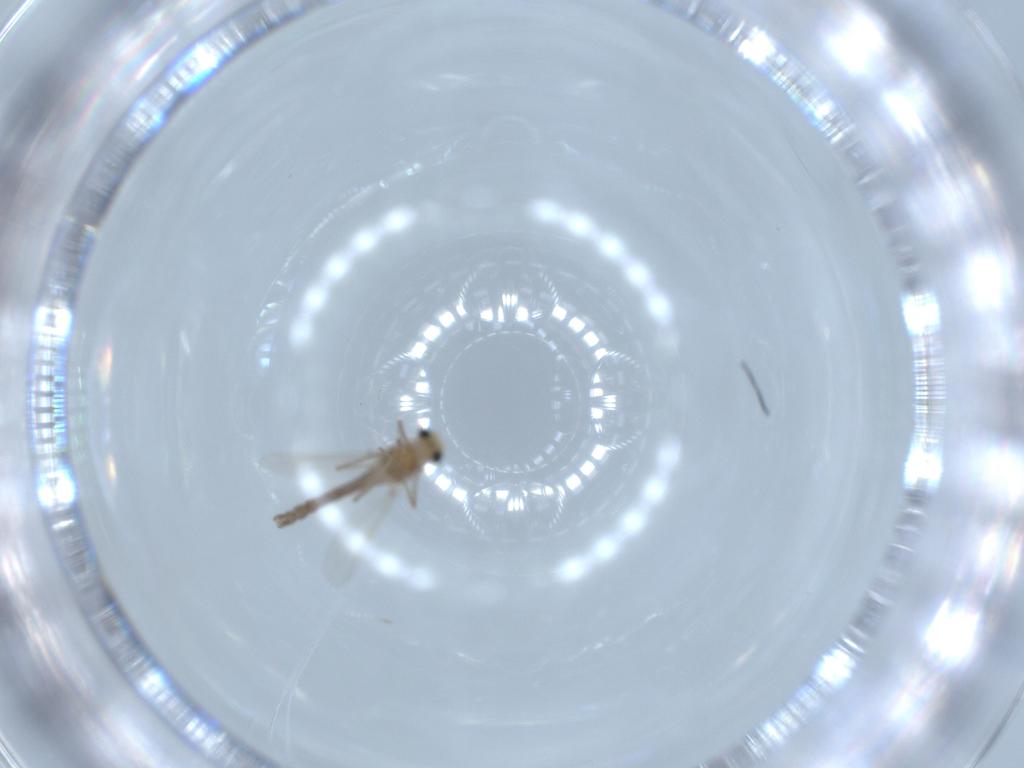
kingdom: Animalia
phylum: Arthropoda
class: Insecta
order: Diptera
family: Chironomidae
